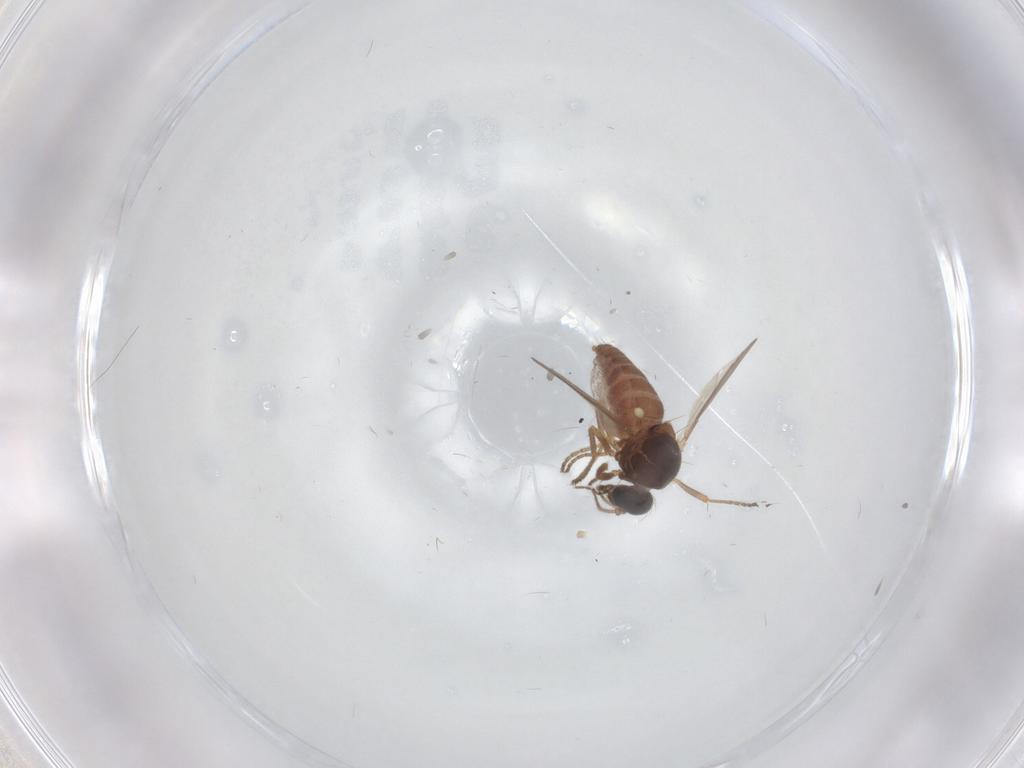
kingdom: Animalia
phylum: Arthropoda
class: Insecta
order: Diptera
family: Ceratopogonidae
